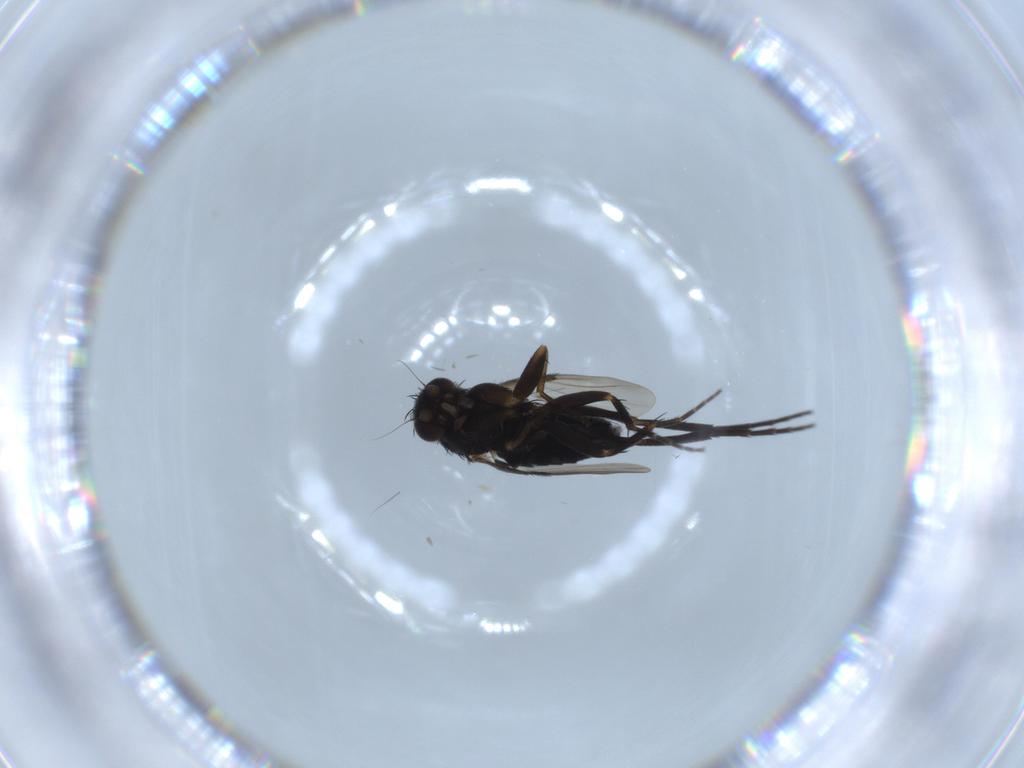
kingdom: Animalia
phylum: Arthropoda
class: Insecta
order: Diptera
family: Phoridae
